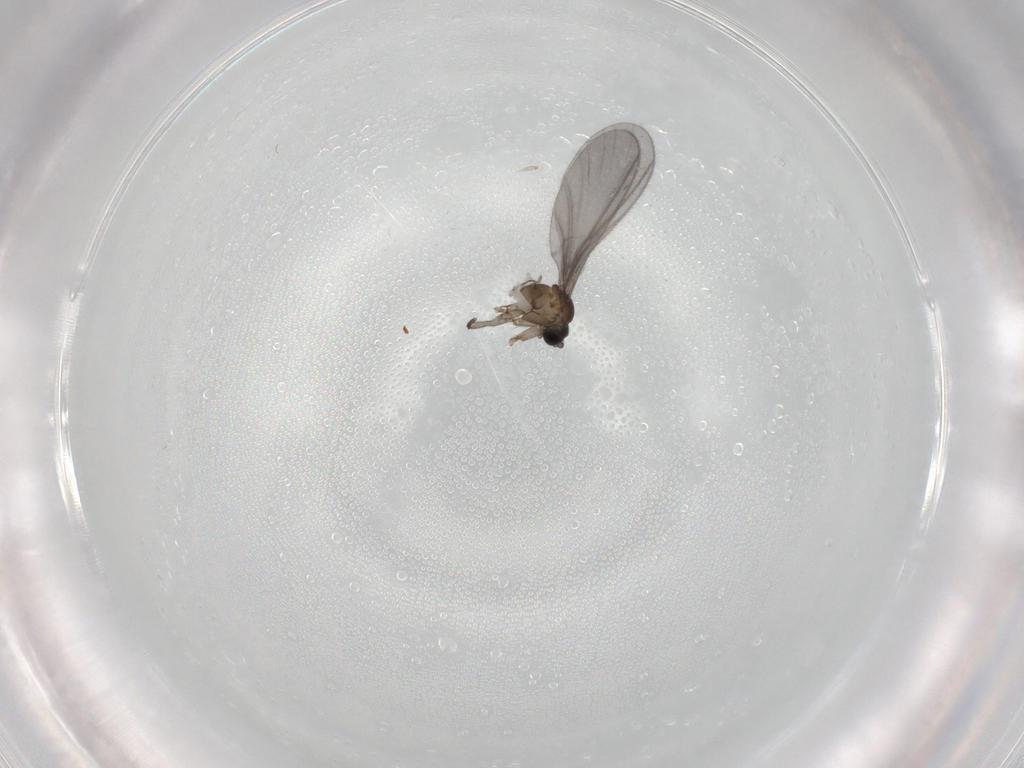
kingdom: Animalia
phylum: Arthropoda
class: Insecta
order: Diptera
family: Sciaridae
